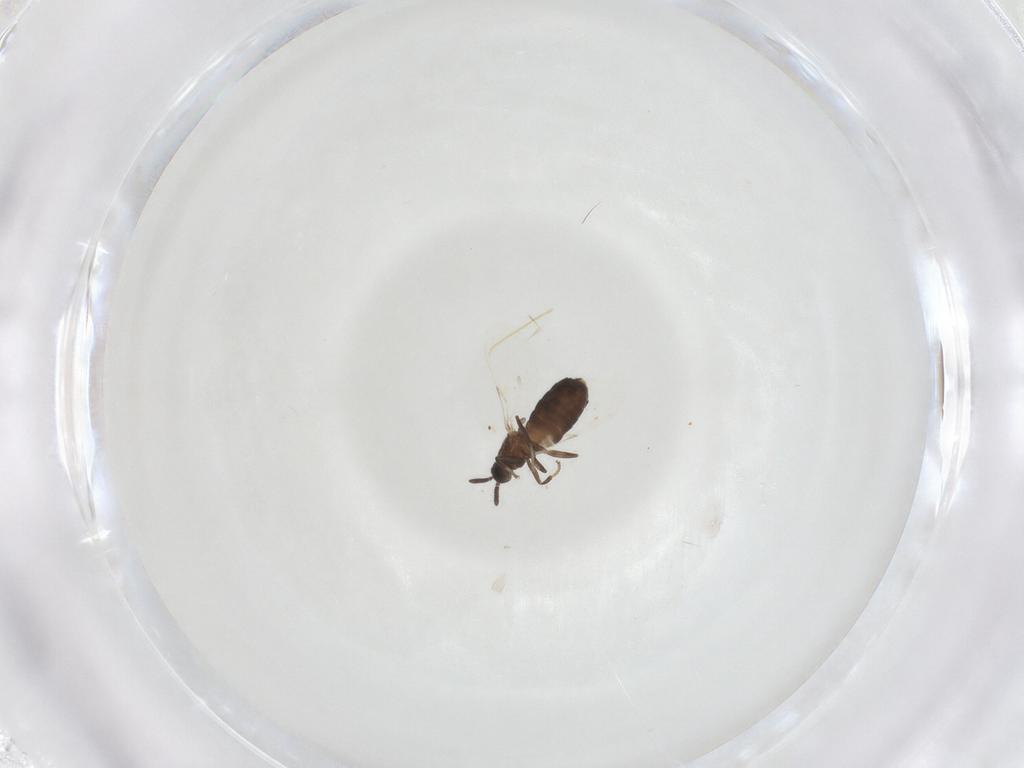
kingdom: Animalia
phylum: Arthropoda
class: Insecta
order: Diptera
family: Scatopsidae
